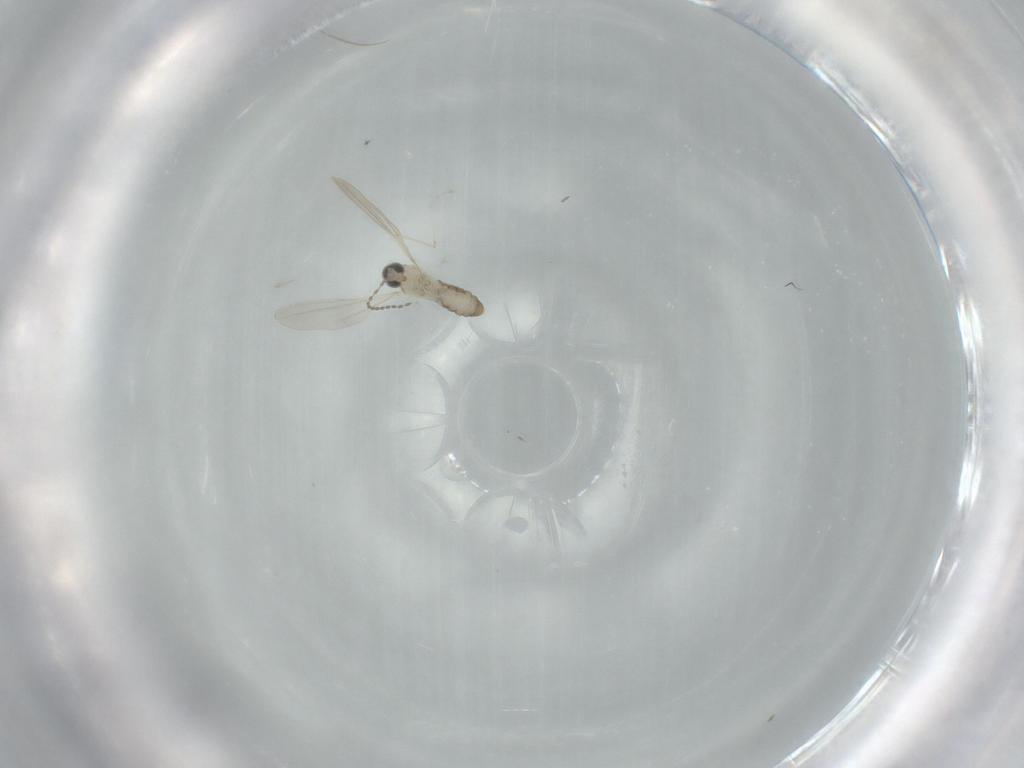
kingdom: Animalia
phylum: Arthropoda
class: Insecta
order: Diptera
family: Cecidomyiidae
